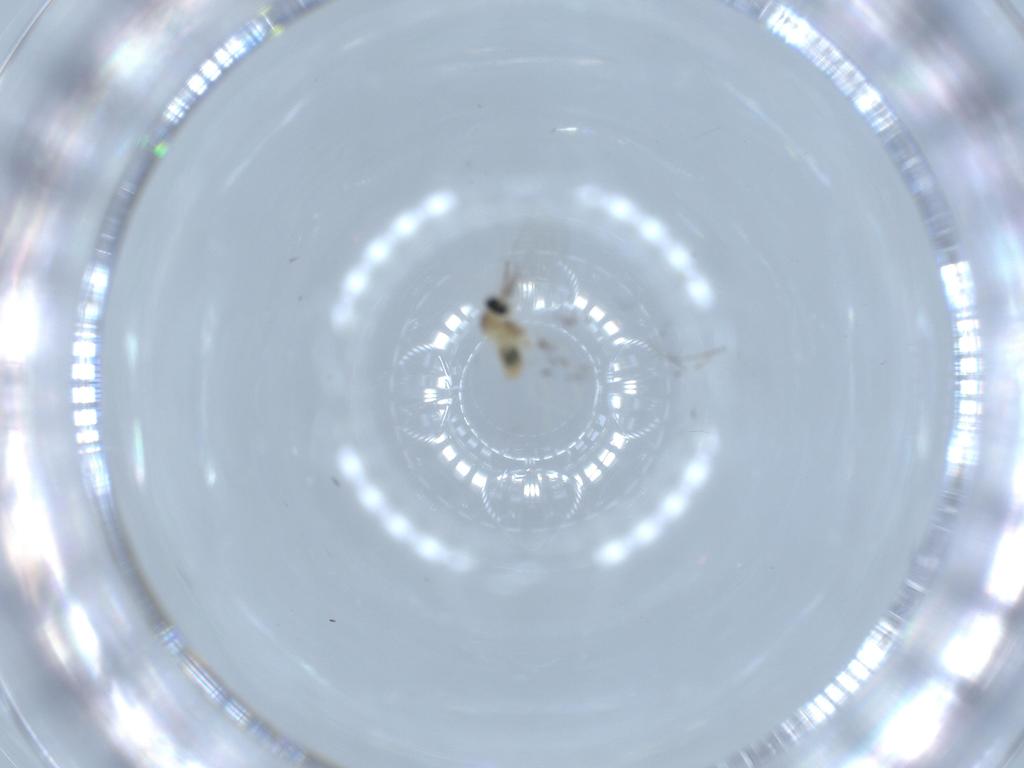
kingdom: Animalia
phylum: Arthropoda
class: Insecta
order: Diptera
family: Cecidomyiidae
